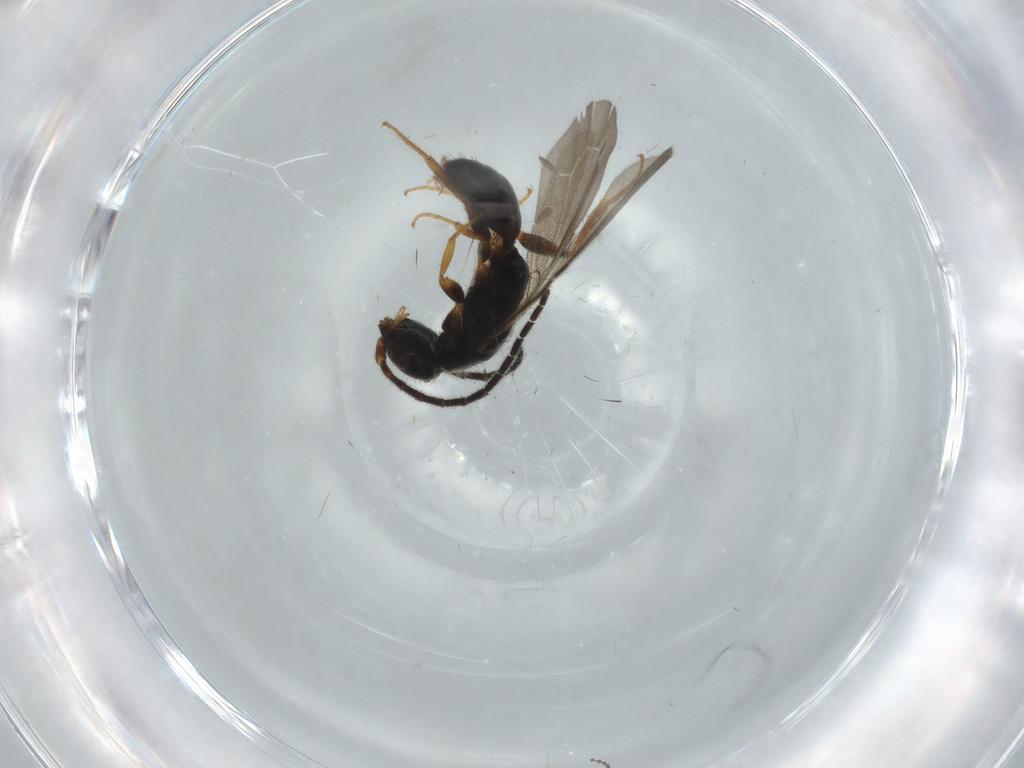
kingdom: Animalia
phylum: Arthropoda
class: Insecta
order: Hymenoptera
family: Bethylidae
